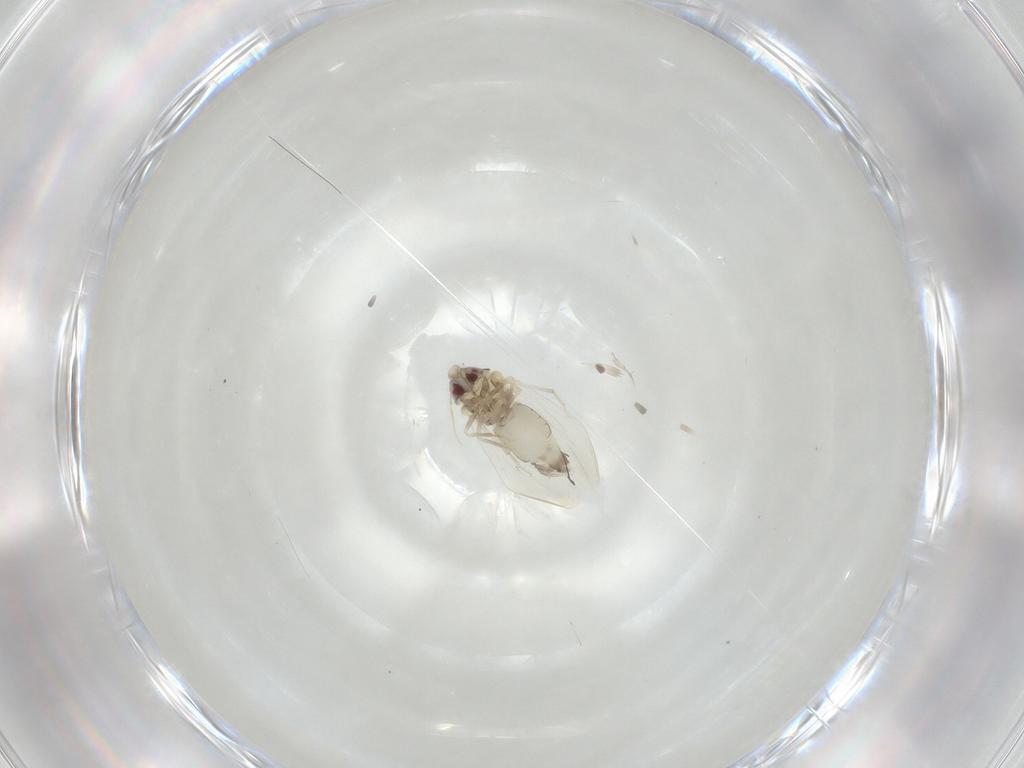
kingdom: Animalia
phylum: Arthropoda
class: Insecta
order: Hemiptera
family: Aleyrodidae
